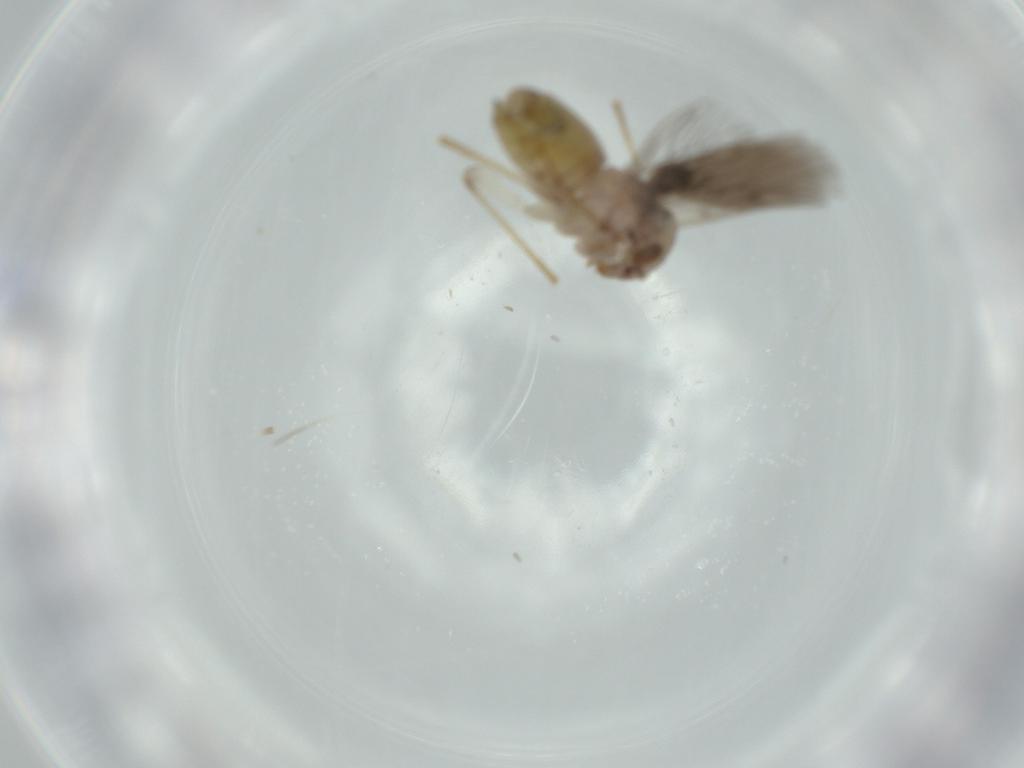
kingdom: Animalia
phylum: Arthropoda
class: Insecta
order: Psocodea
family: Lepidopsocidae
